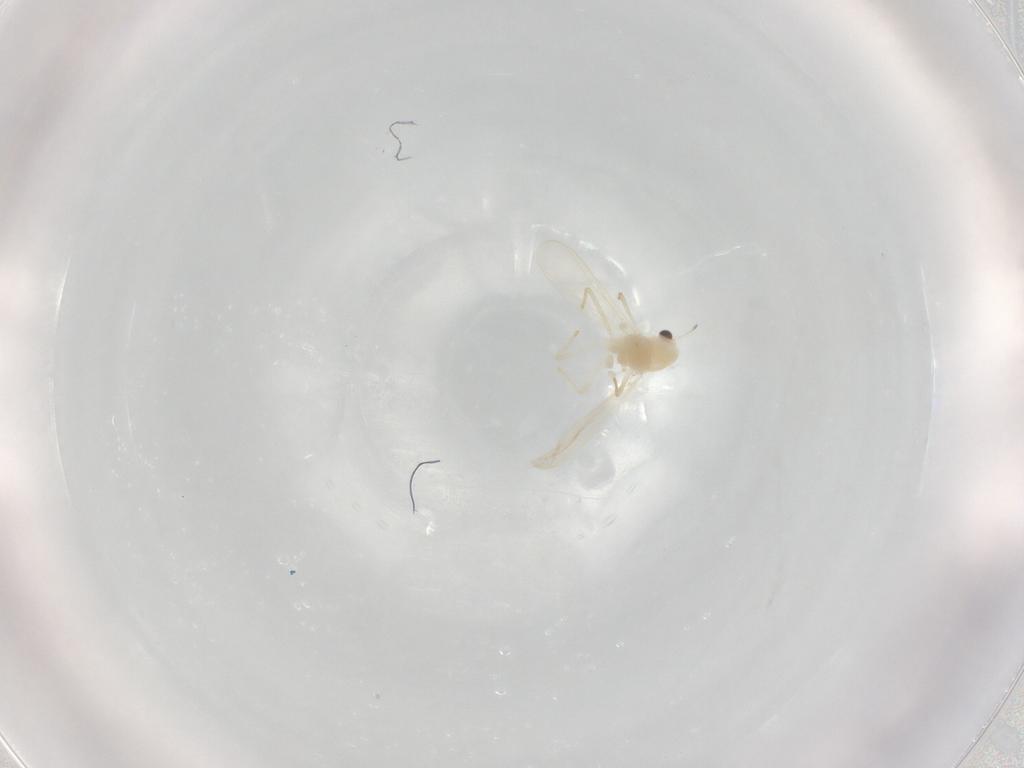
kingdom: Animalia
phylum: Arthropoda
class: Insecta
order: Diptera
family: Chironomidae
